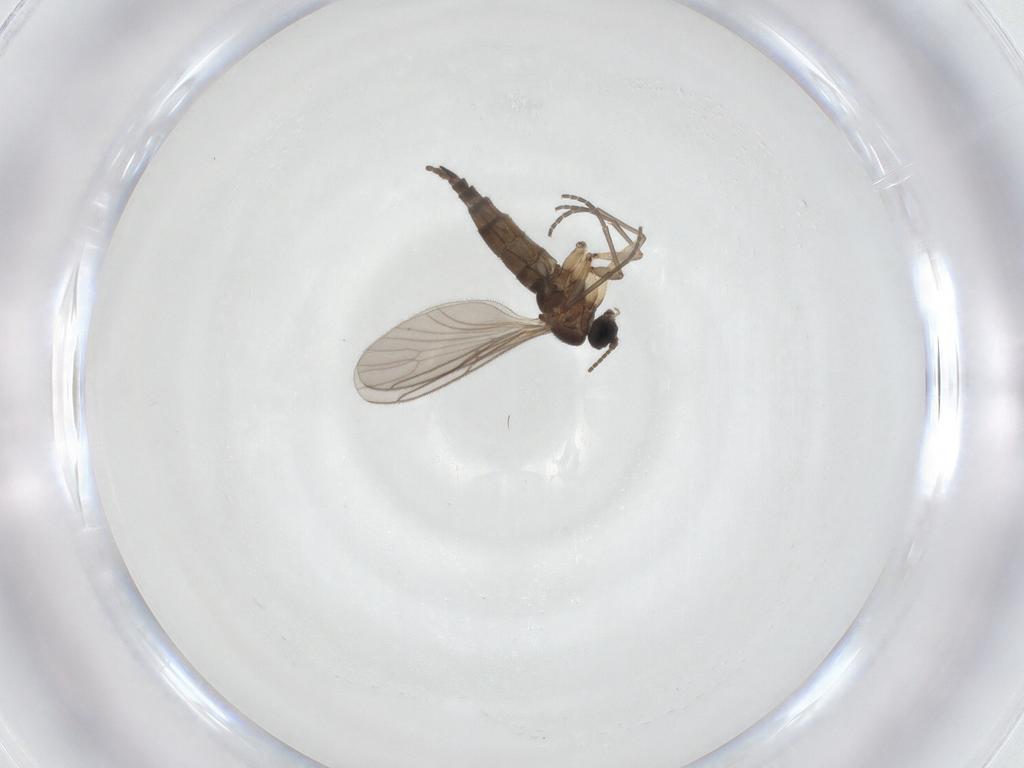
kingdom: Animalia
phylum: Arthropoda
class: Insecta
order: Diptera
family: Sciaridae
